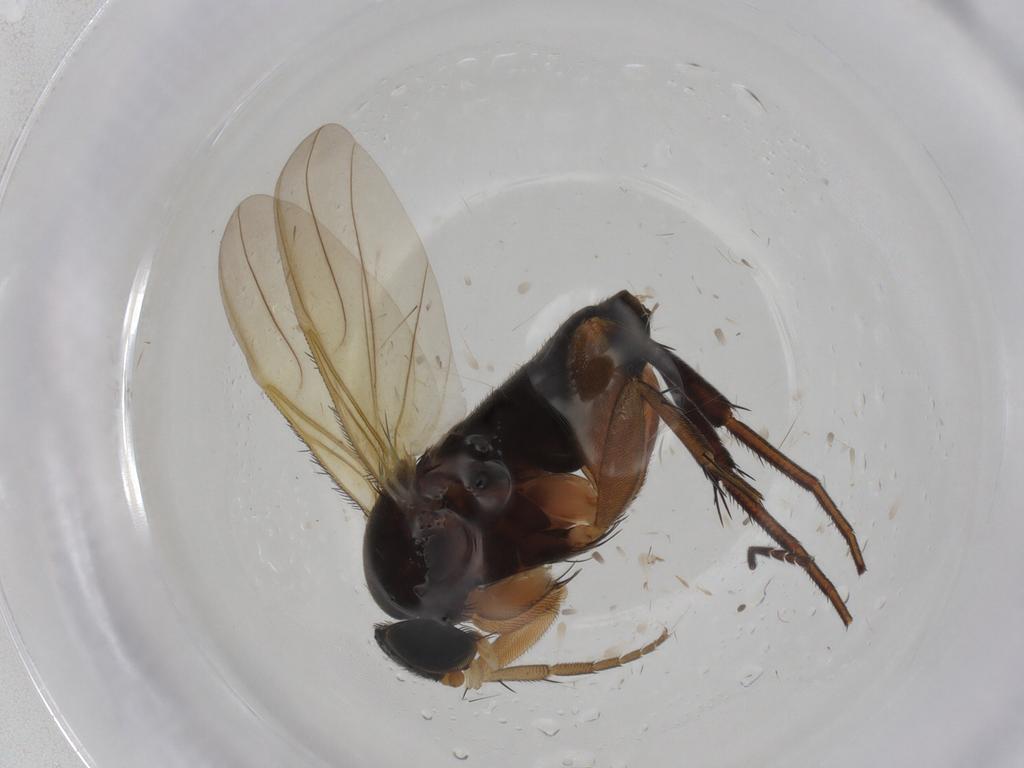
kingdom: Animalia
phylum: Arthropoda
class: Insecta
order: Diptera
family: Phoridae
